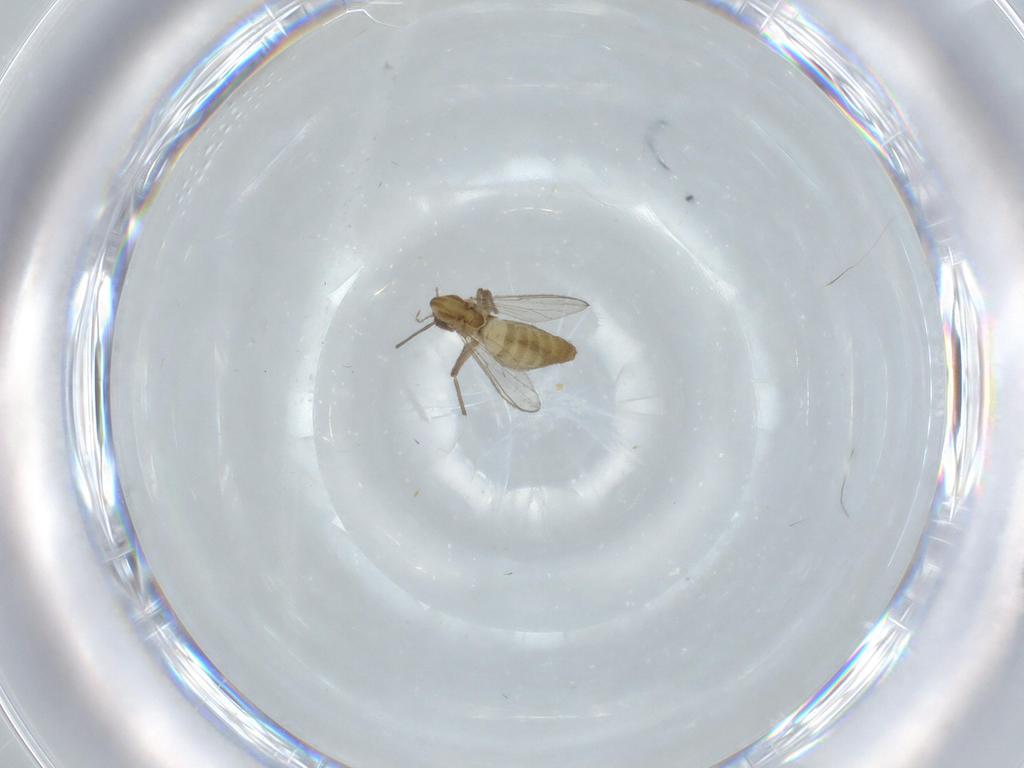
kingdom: Animalia
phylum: Arthropoda
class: Insecta
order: Diptera
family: Chironomidae
